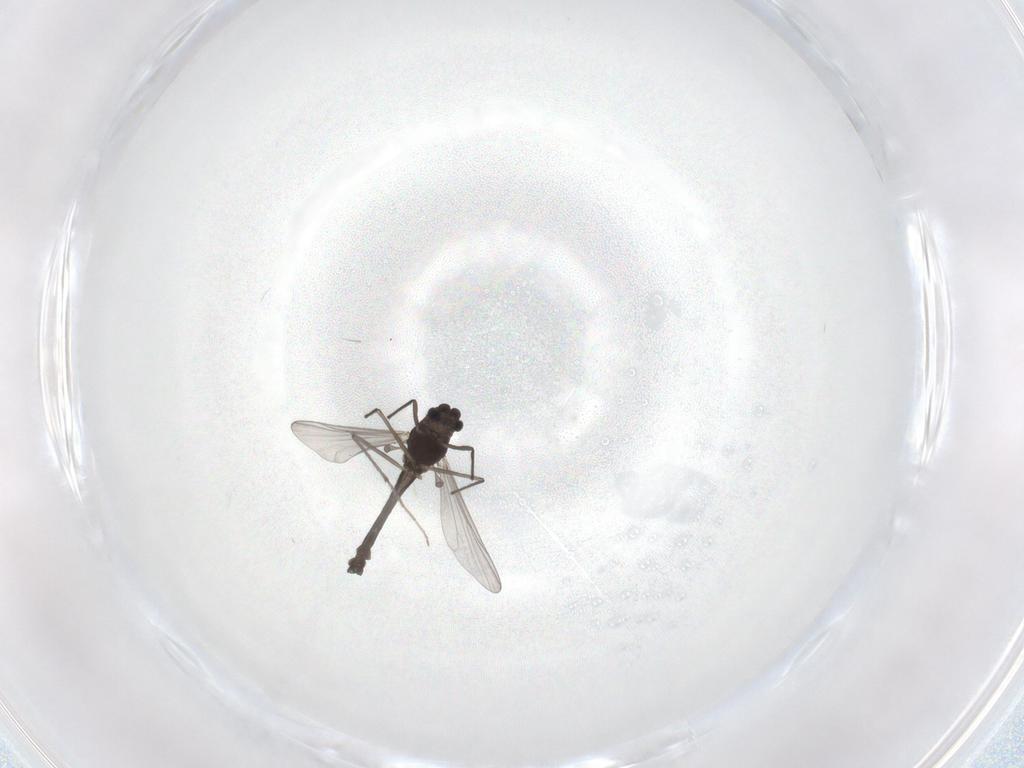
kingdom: Animalia
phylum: Arthropoda
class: Insecta
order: Diptera
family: Chironomidae
